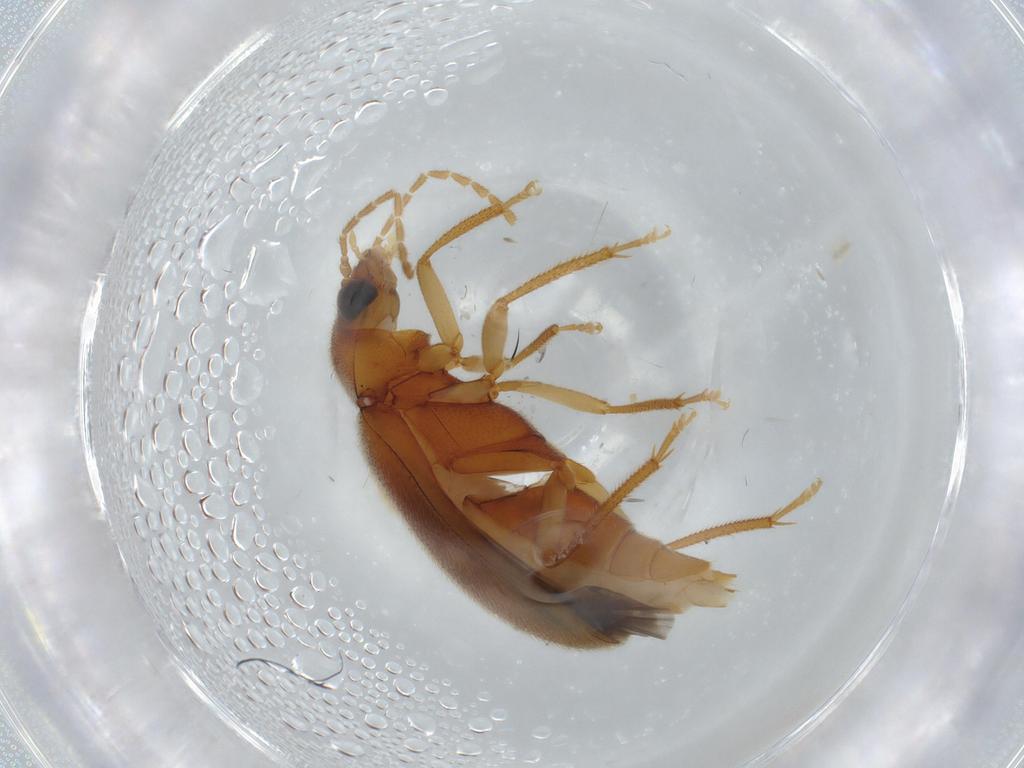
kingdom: Animalia
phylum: Arthropoda
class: Insecta
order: Coleoptera
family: Ptilodactylidae
